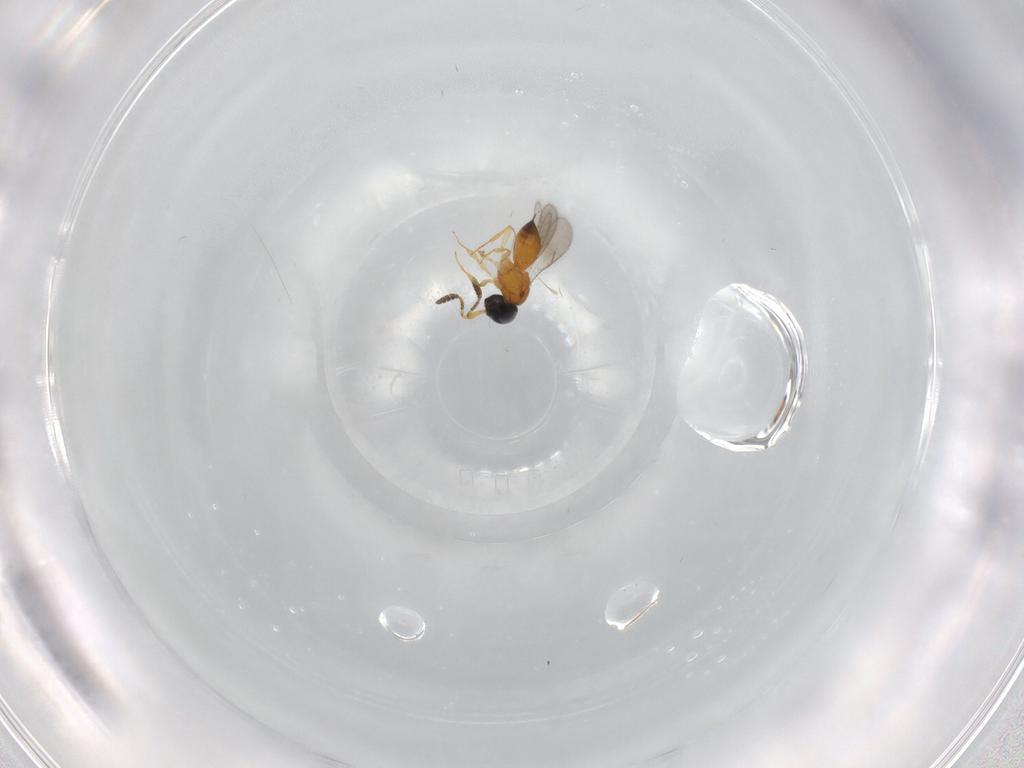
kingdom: Animalia
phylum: Arthropoda
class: Insecta
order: Hymenoptera
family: Scelionidae
